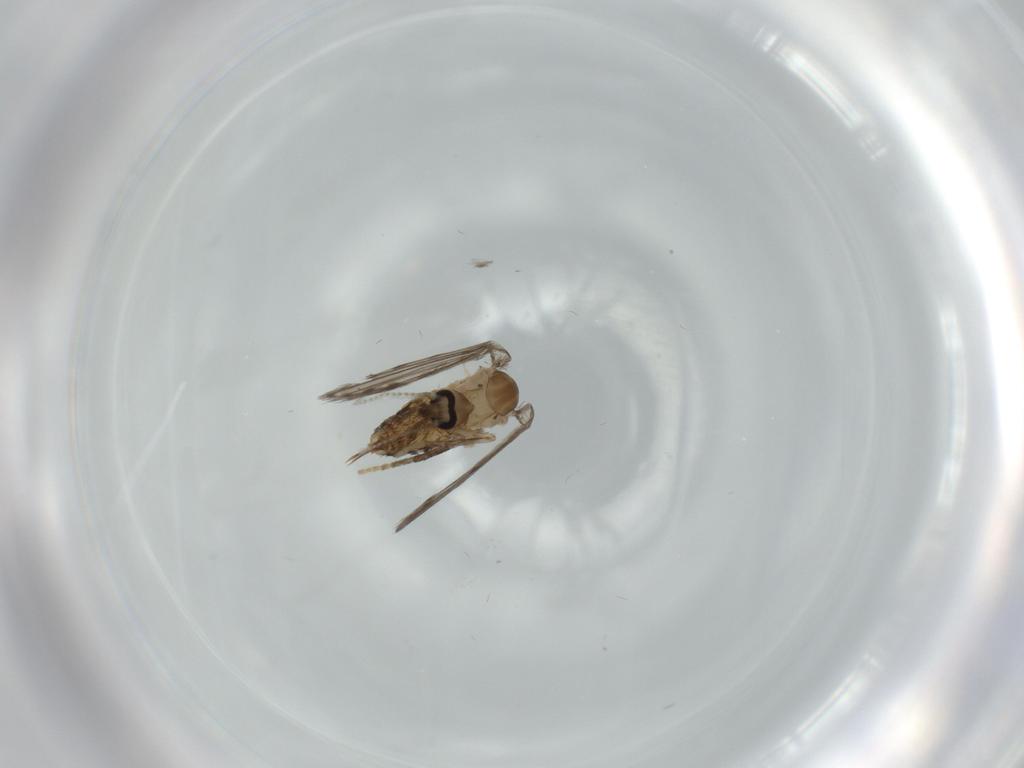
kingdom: Animalia
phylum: Arthropoda
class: Insecta
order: Diptera
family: Psychodidae
